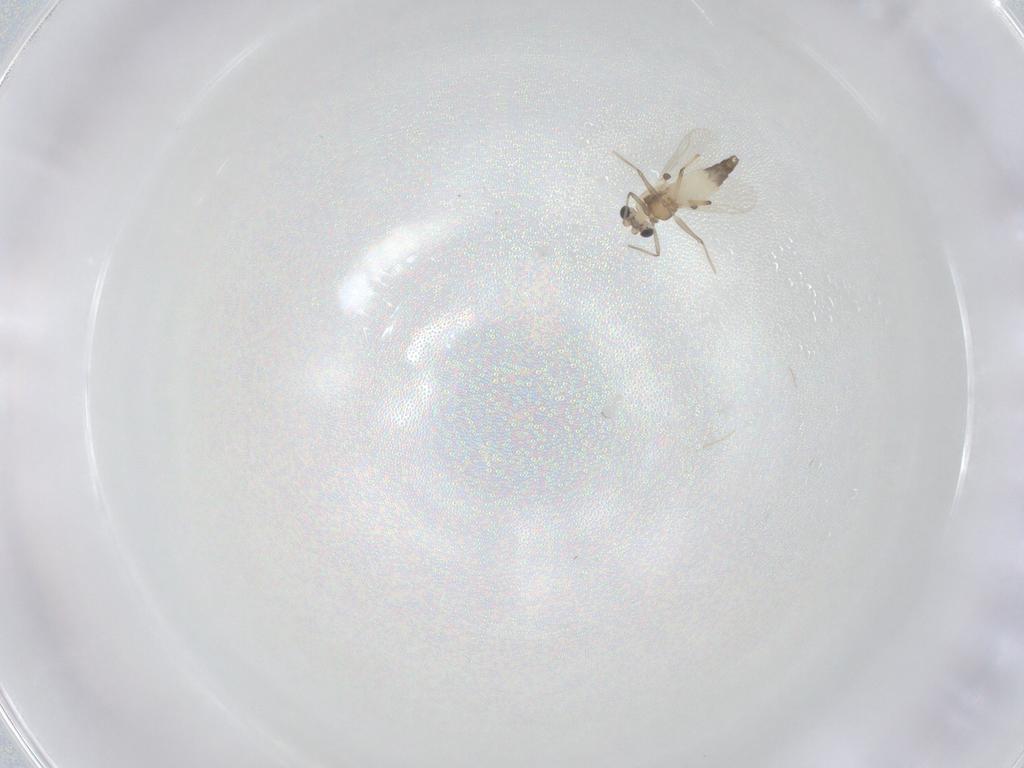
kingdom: Animalia
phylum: Arthropoda
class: Insecta
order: Diptera
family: Chironomidae
